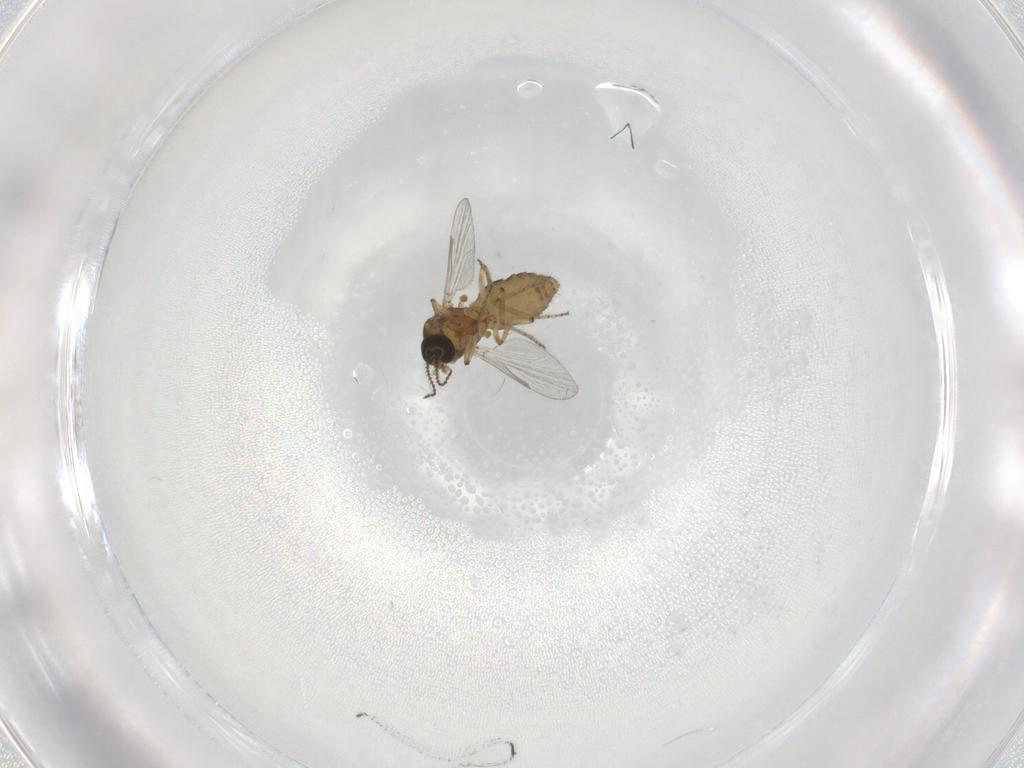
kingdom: Animalia
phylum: Arthropoda
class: Insecta
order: Diptera
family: Ceratopogonidae
